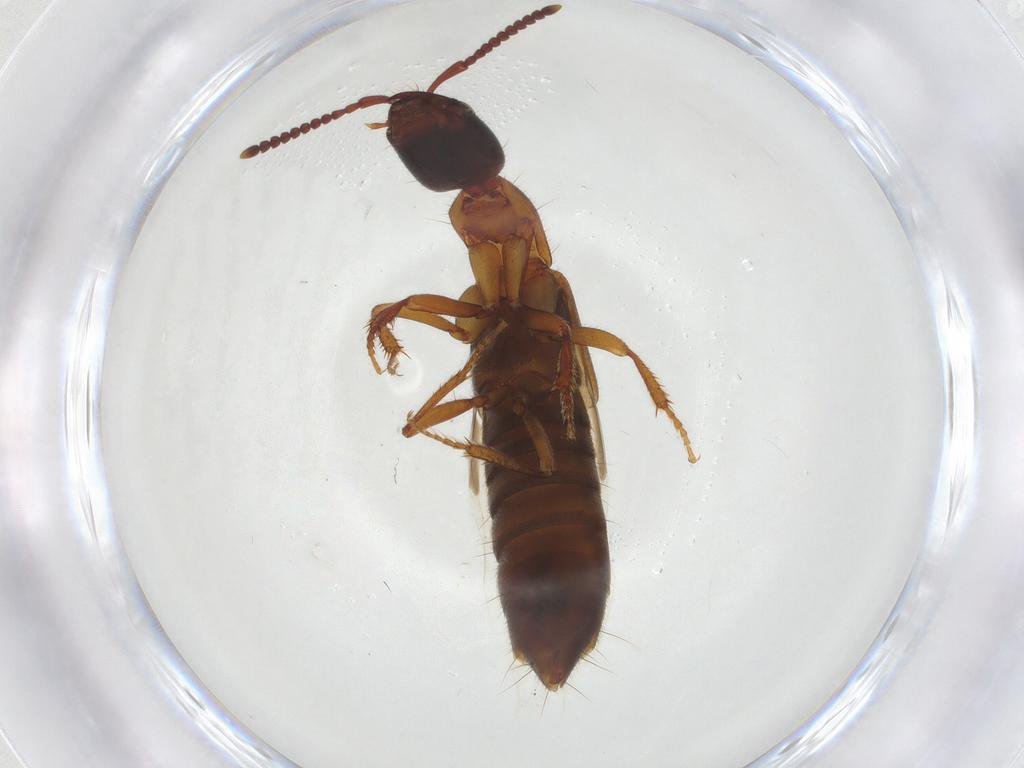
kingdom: Animalia
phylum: Arthropoda
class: Insecta
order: Coleoptera
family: Staphylinidae
